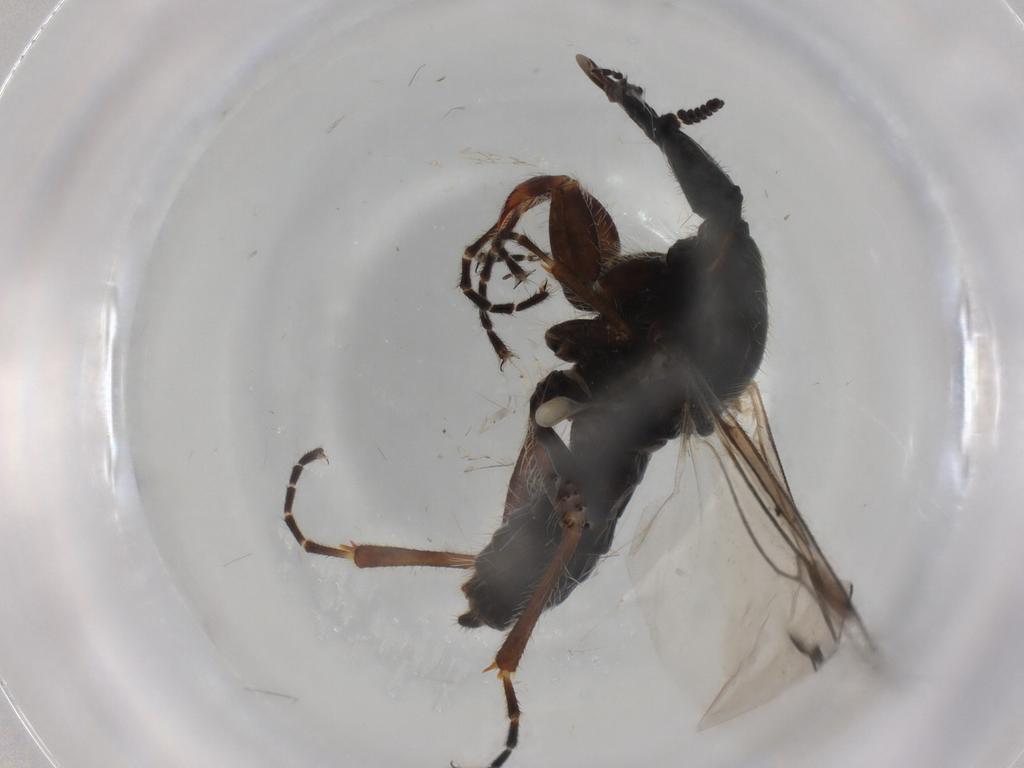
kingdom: Animalia
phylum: Arthropoda
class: Insecta
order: Diptera
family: Bibionidae
